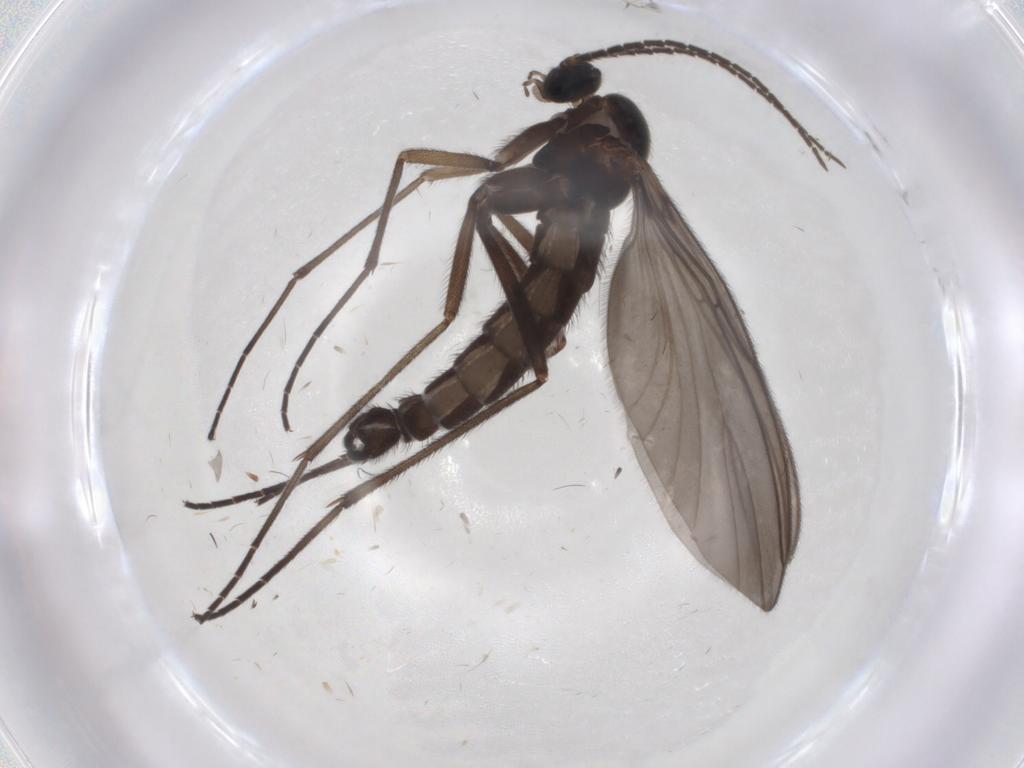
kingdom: Animalia
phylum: Arthropoda
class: Insecta
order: Diptera
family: Sciaridae
